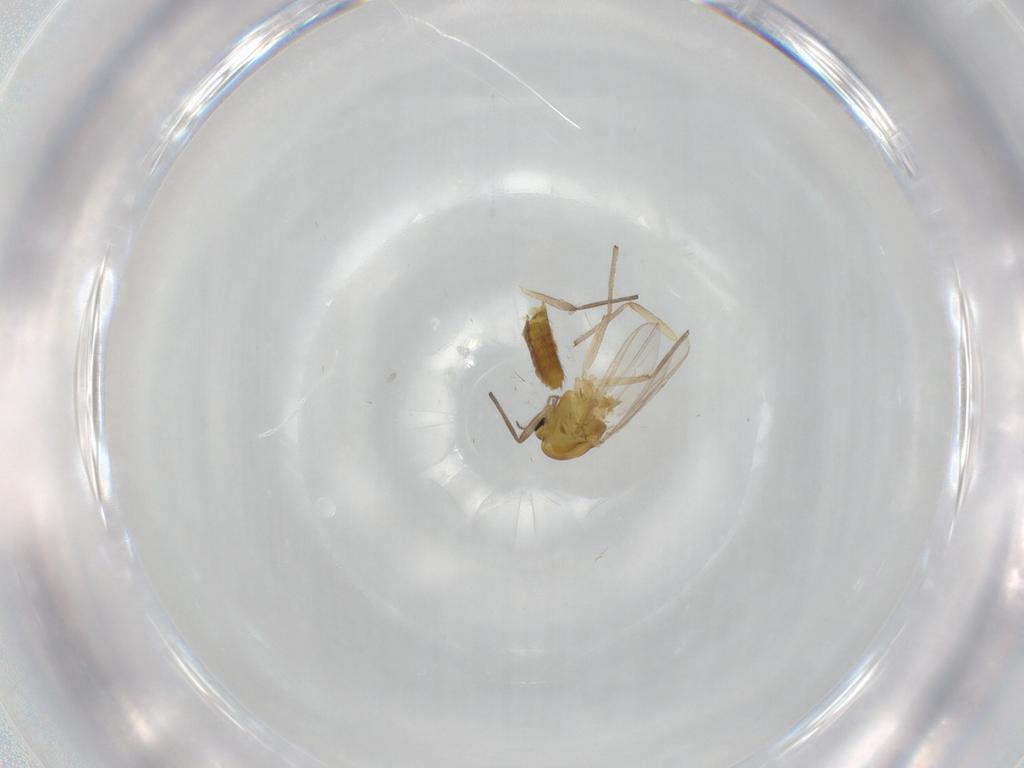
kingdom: Animalia
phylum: Arthropoda
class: Insecta
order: Diptera
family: Chironomidae
